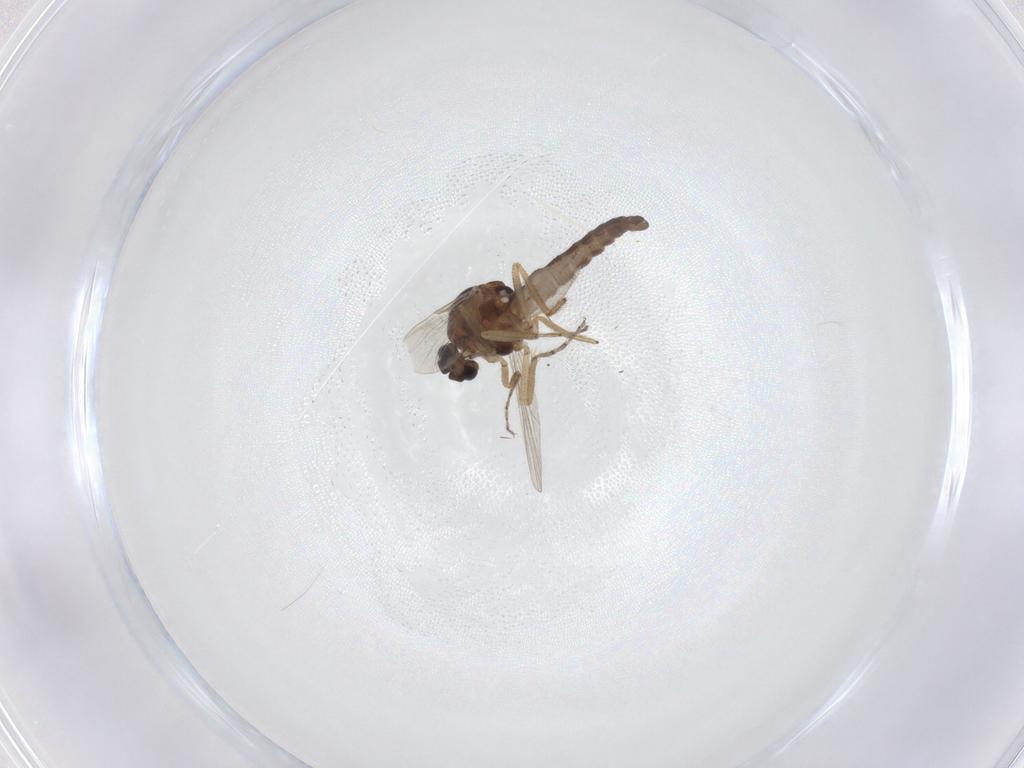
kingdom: Animalia
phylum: Arthropoda
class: Insecta
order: Diptera
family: Ceratopogonidae
